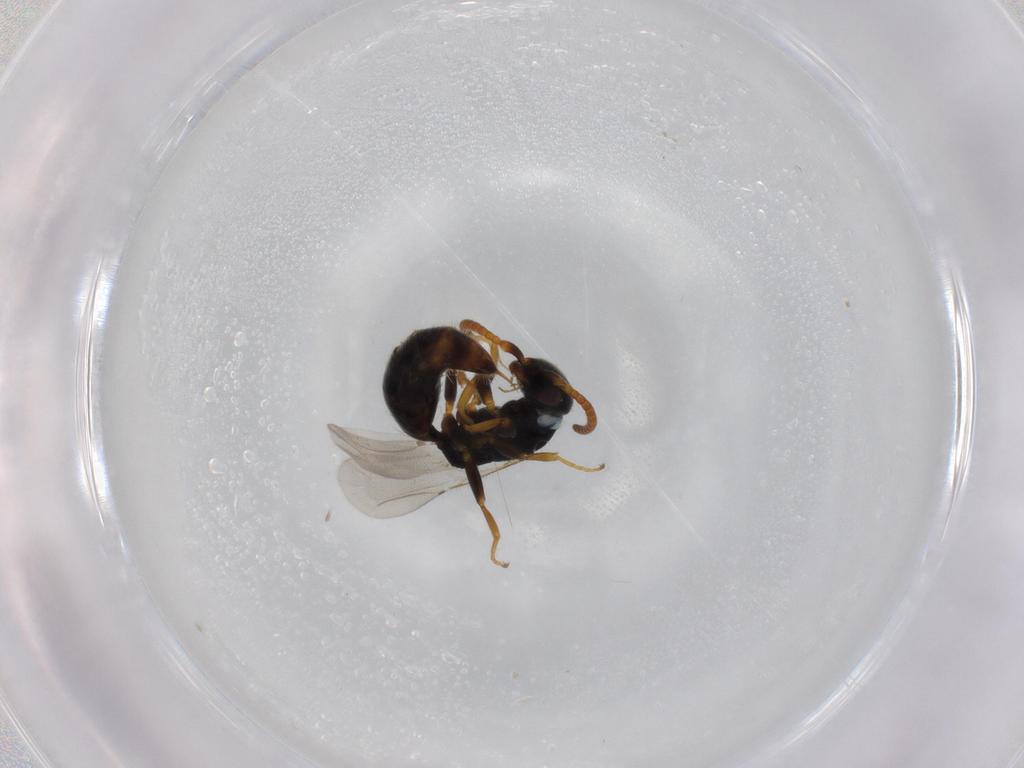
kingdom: Animalia
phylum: Arthropoda
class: Insecta
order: Hymenoptera
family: Bethylidae
